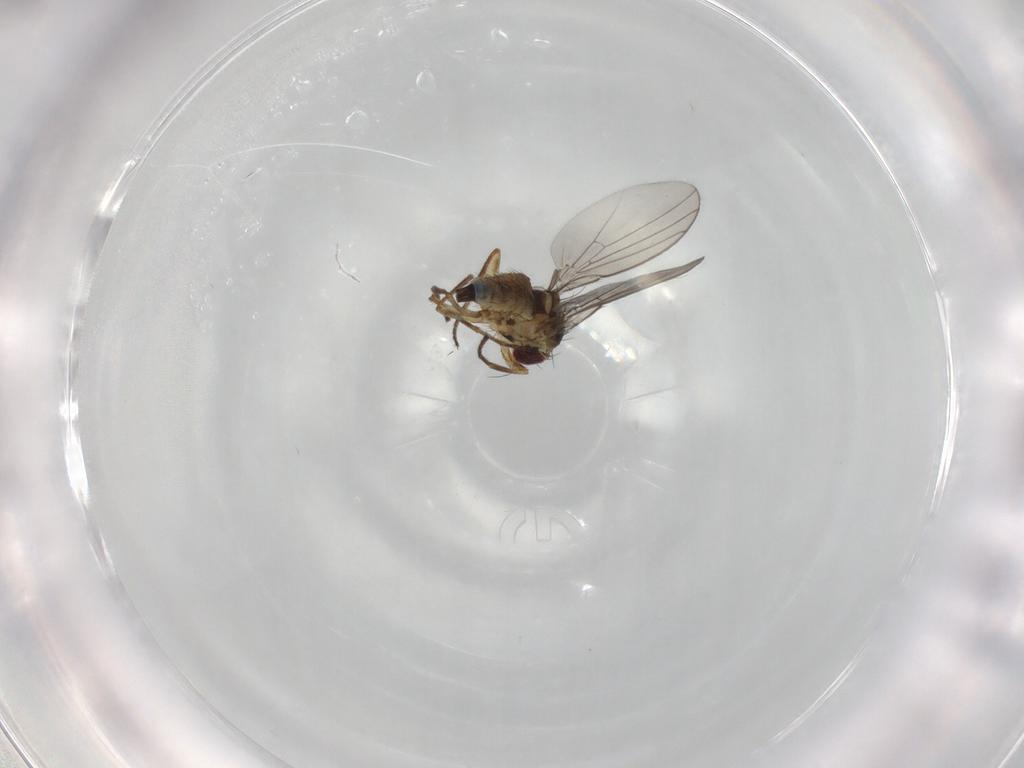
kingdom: Animalia
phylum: Arthropoda
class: Insecta
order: Diptera
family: Agromyzidae
